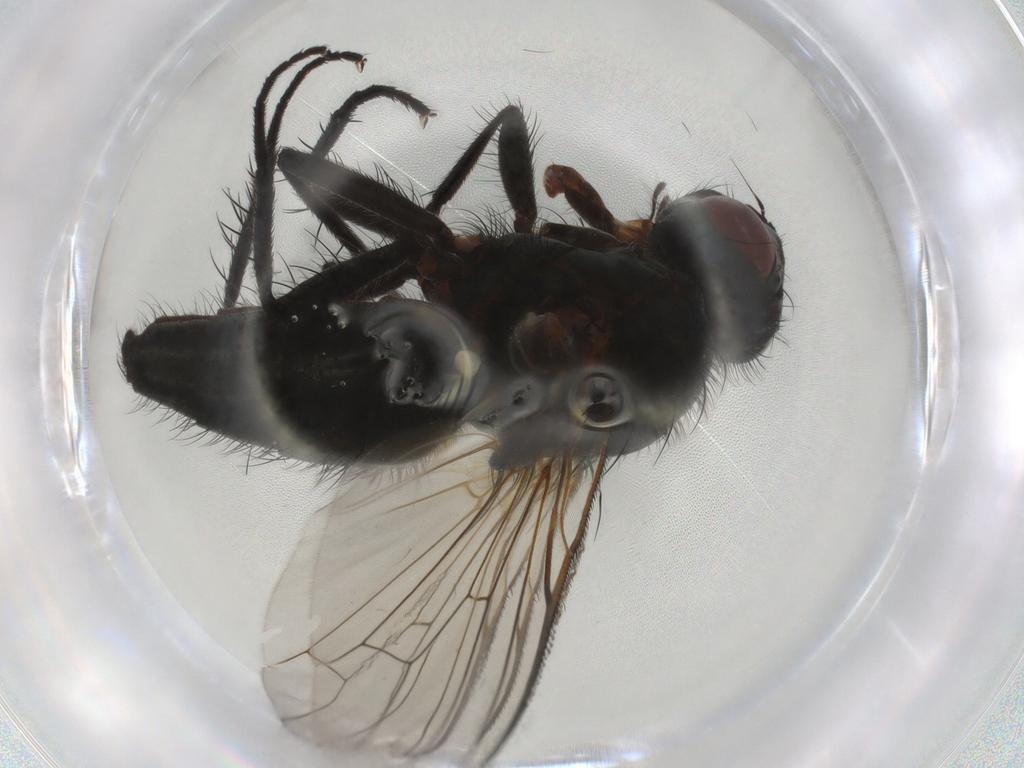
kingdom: Animalia
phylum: Arthropoda
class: Insecta
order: Diptera
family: Anthomyiidae
